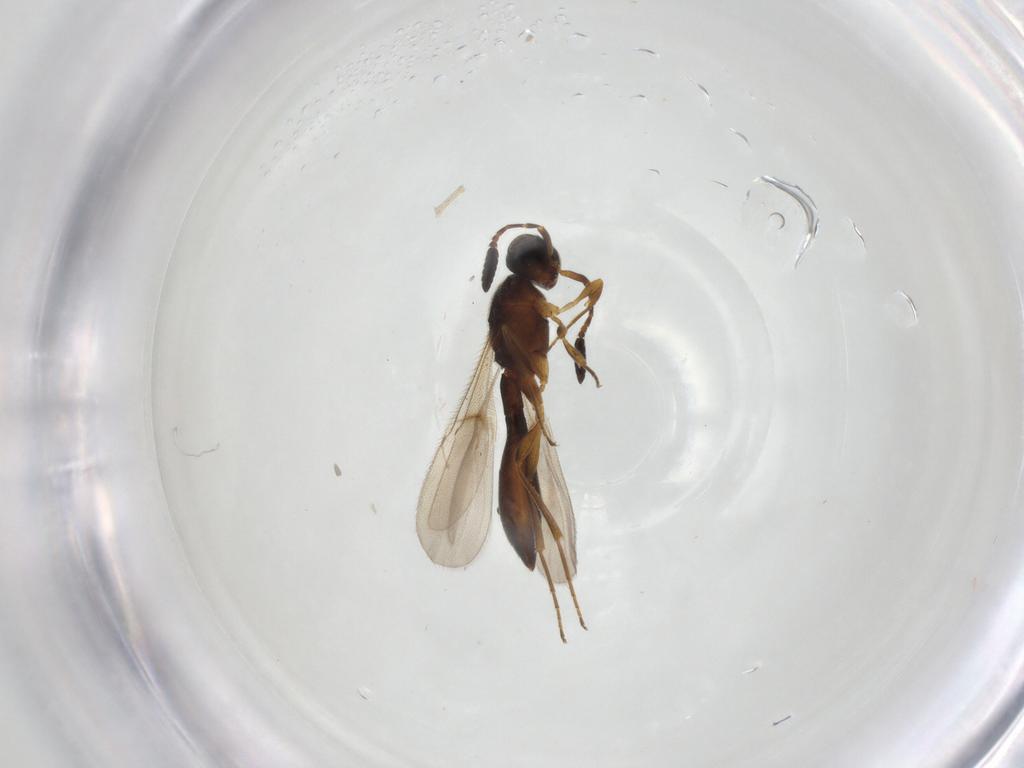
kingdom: Animalia
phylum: Arthropoda
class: Insecta
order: Hymenoptera
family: Scelionidae
